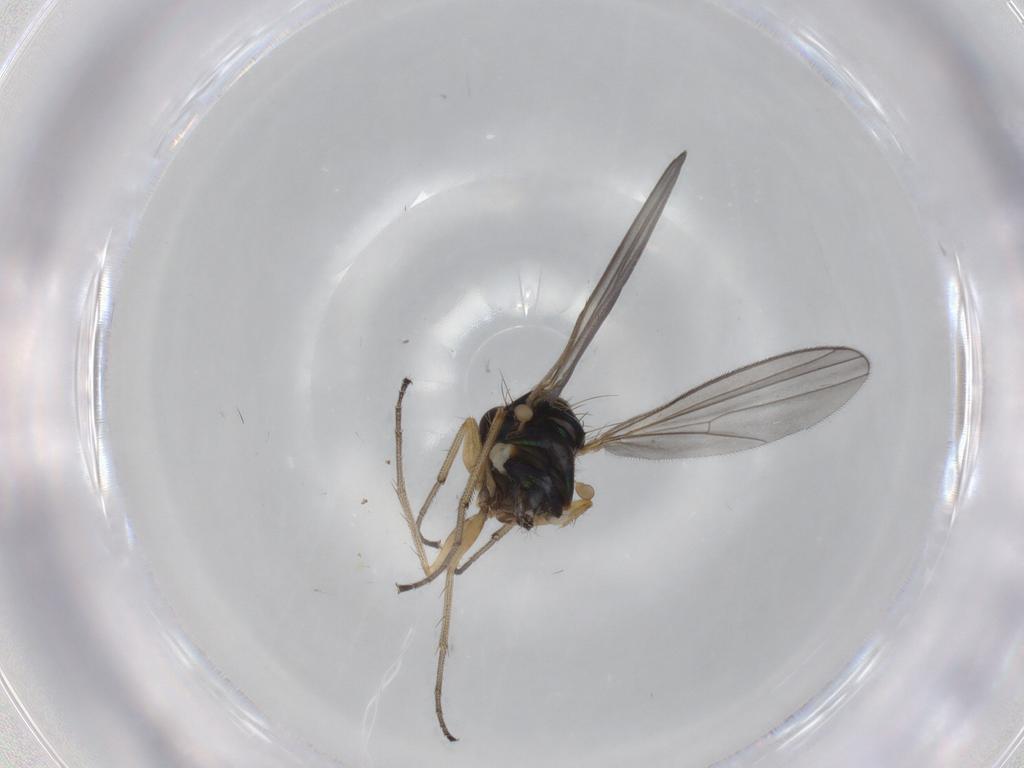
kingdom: Animalia
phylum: Arthropoda
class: Insecta
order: Diptera
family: Dolichopodidae
